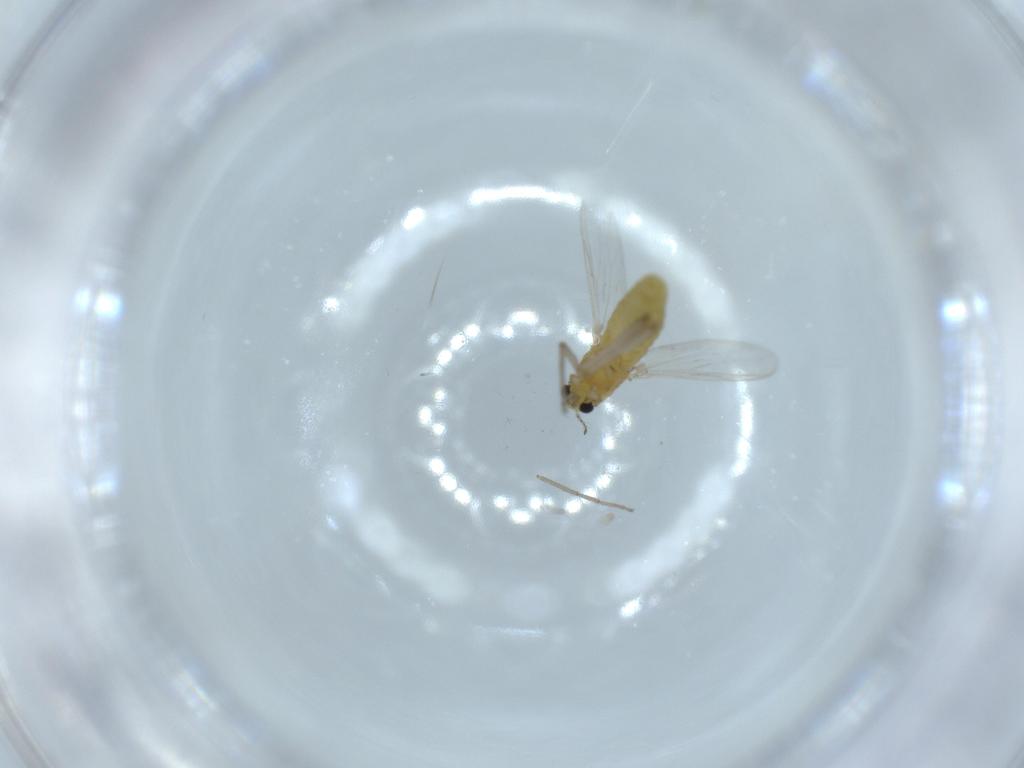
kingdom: Animalia
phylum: Arthropoda
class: Insecta
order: Diptera
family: Chironomidae
